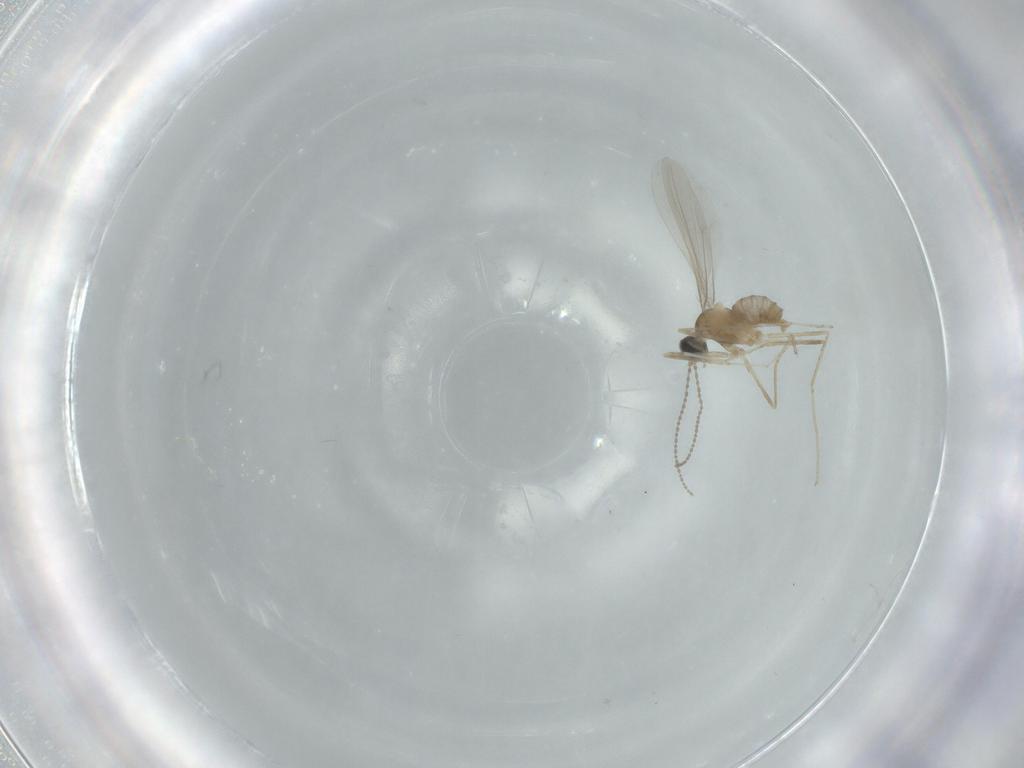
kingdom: Animalia
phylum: Arthropoda
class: Insecta
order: Diptera
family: Cecidomyiidae
